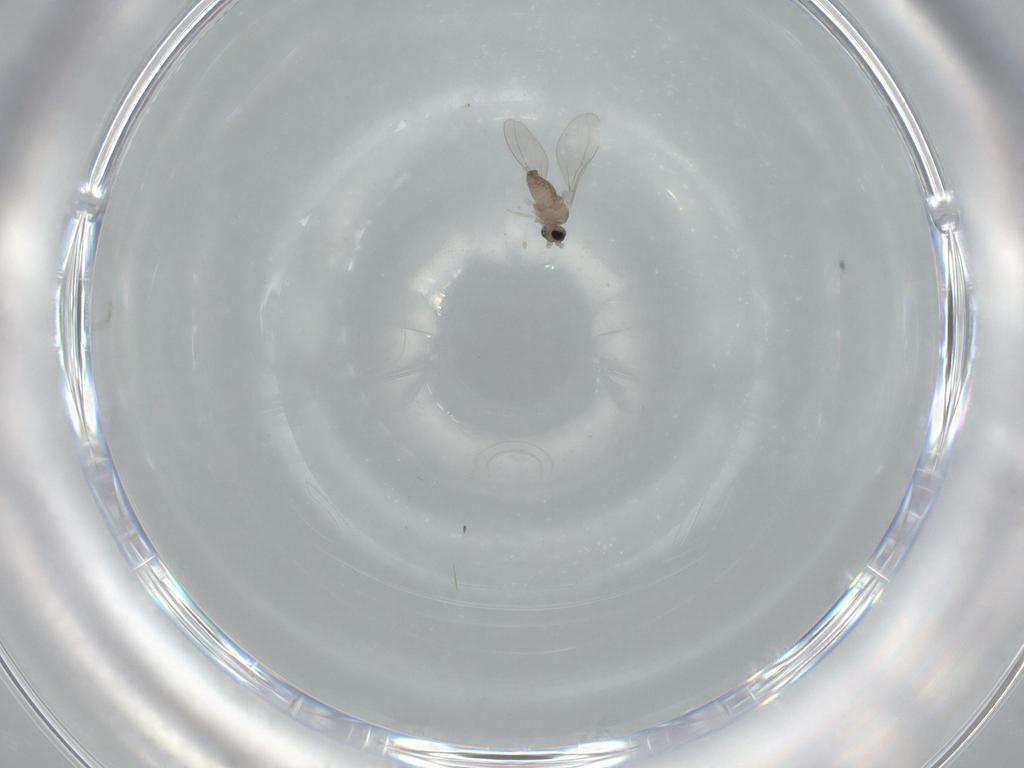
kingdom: Animalia
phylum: Arthropoda
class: Insecta
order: Diptera
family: Cecidomyiidae
